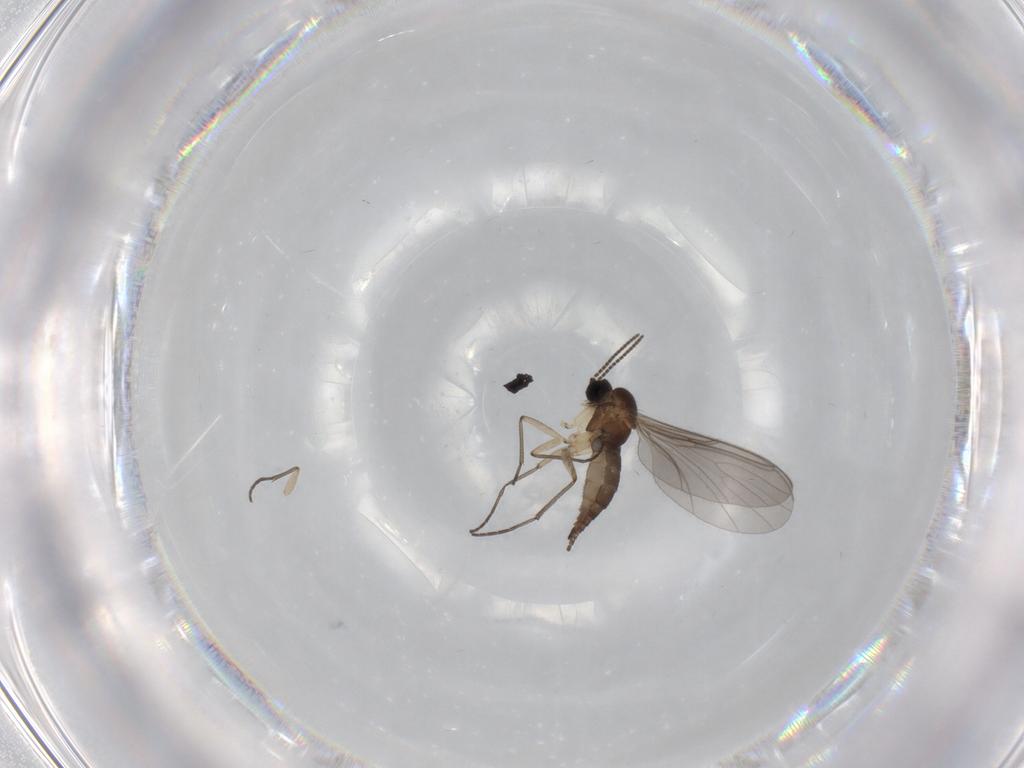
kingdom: Animalia
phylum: Arthropoda
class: Insecta
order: Diptera
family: Sciaridae
